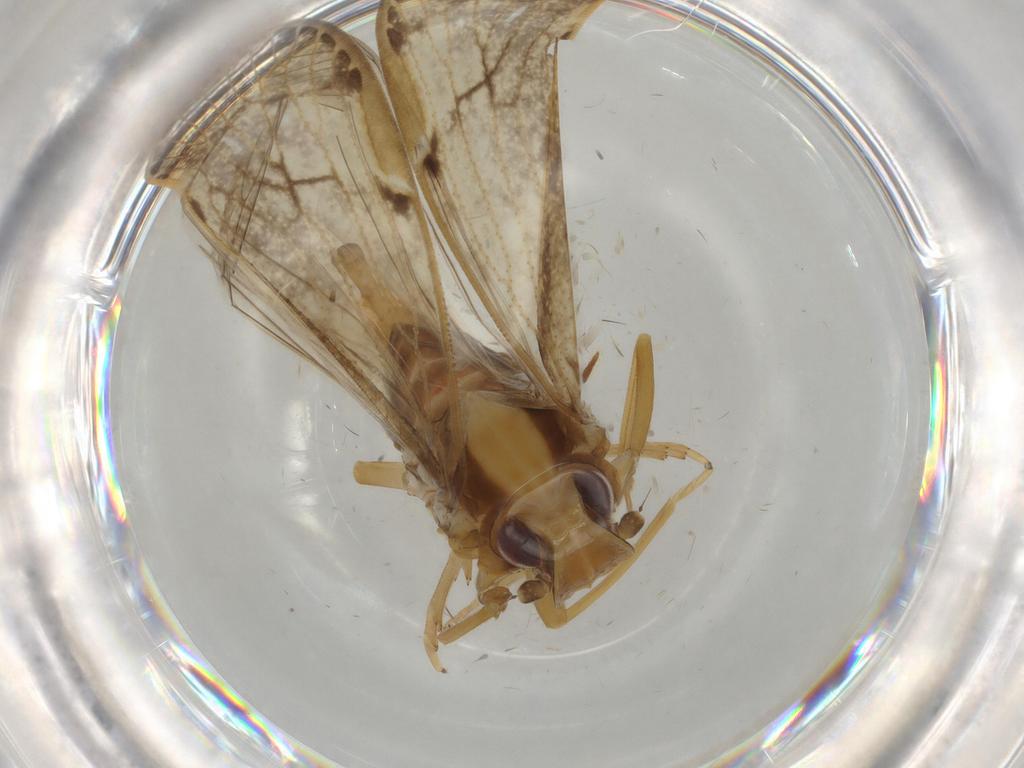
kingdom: Animalia
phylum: Arthropoda
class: Insecta
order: Hemiptera
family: Cixiidae
